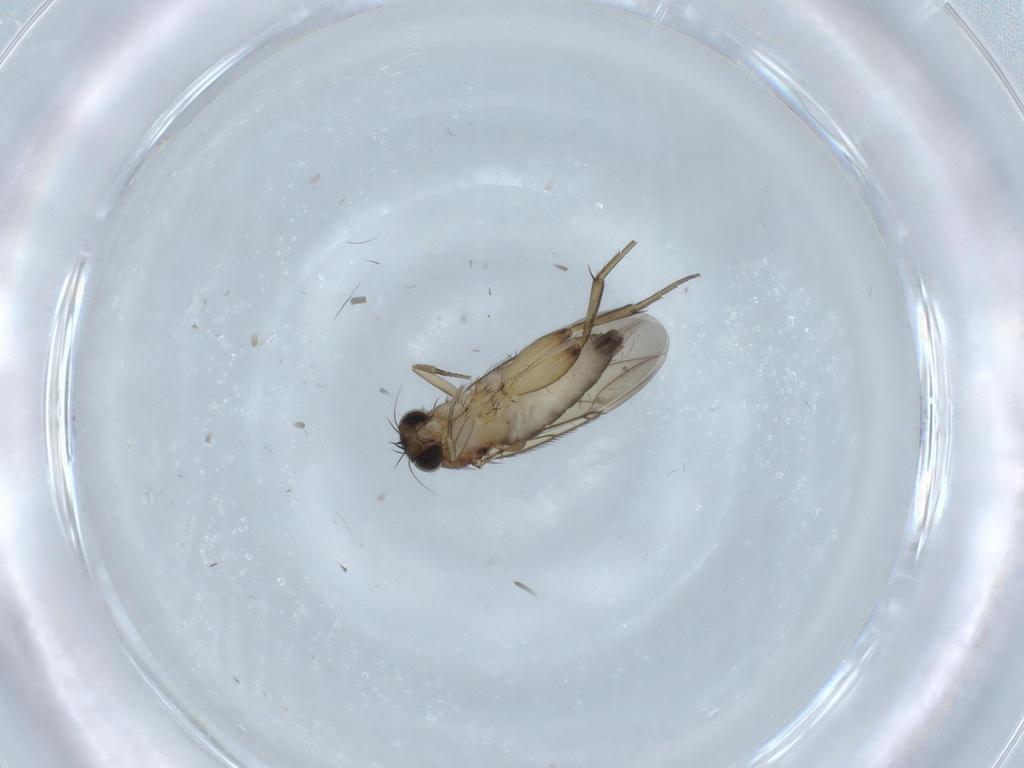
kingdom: Animalia
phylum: Arthropoda
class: Insecta
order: Diptera
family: Phoridae
